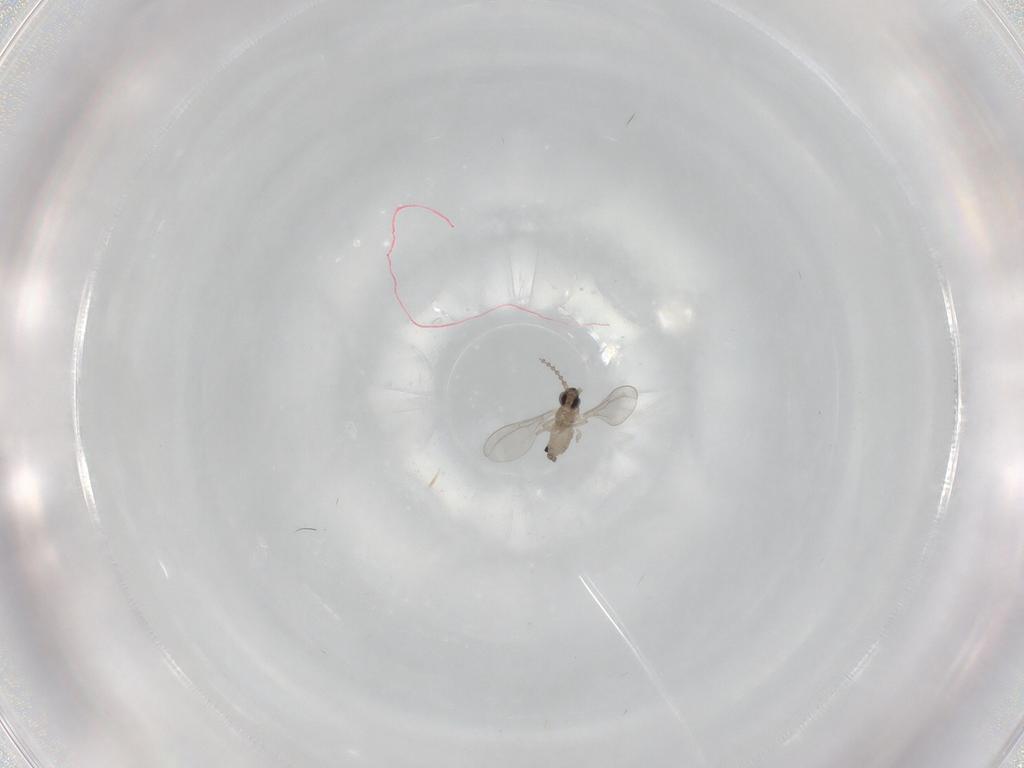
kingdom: Animalia
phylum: Arthropoda
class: Insecta
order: Diptera
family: Cecidomyiidae
